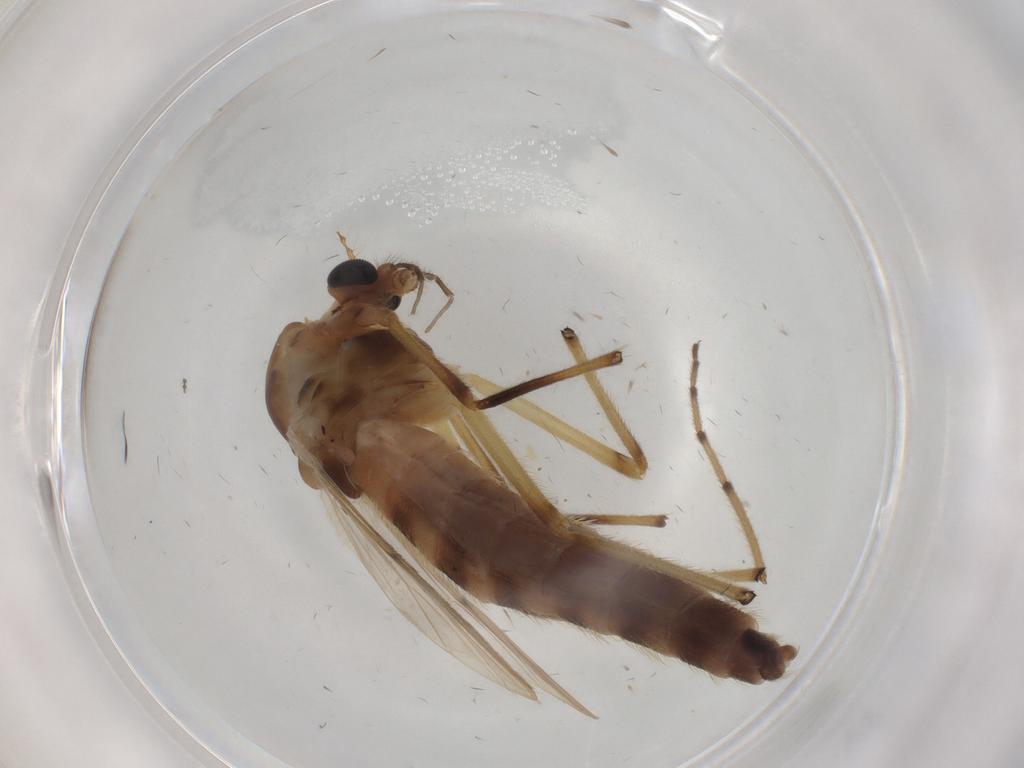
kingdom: Animalia
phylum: Arthropoda
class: Insecta
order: Diptera
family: Chironomidae
